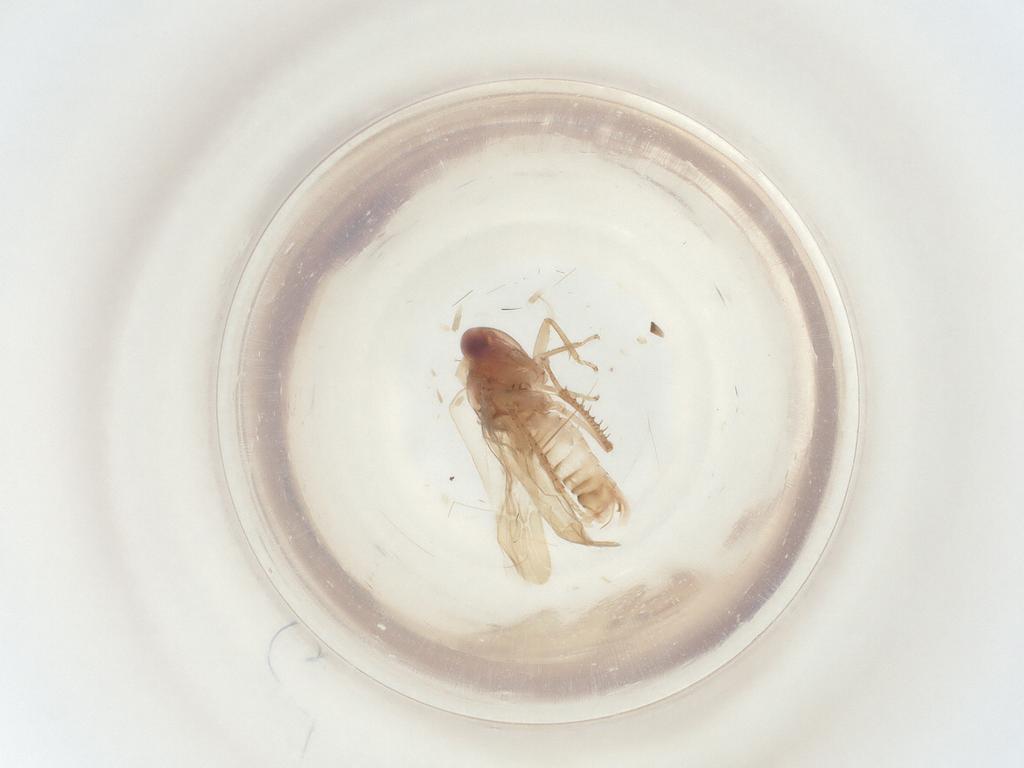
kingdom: Animalia
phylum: Arthropoda
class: Insecta
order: Hemiptera
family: Cicadellidae
